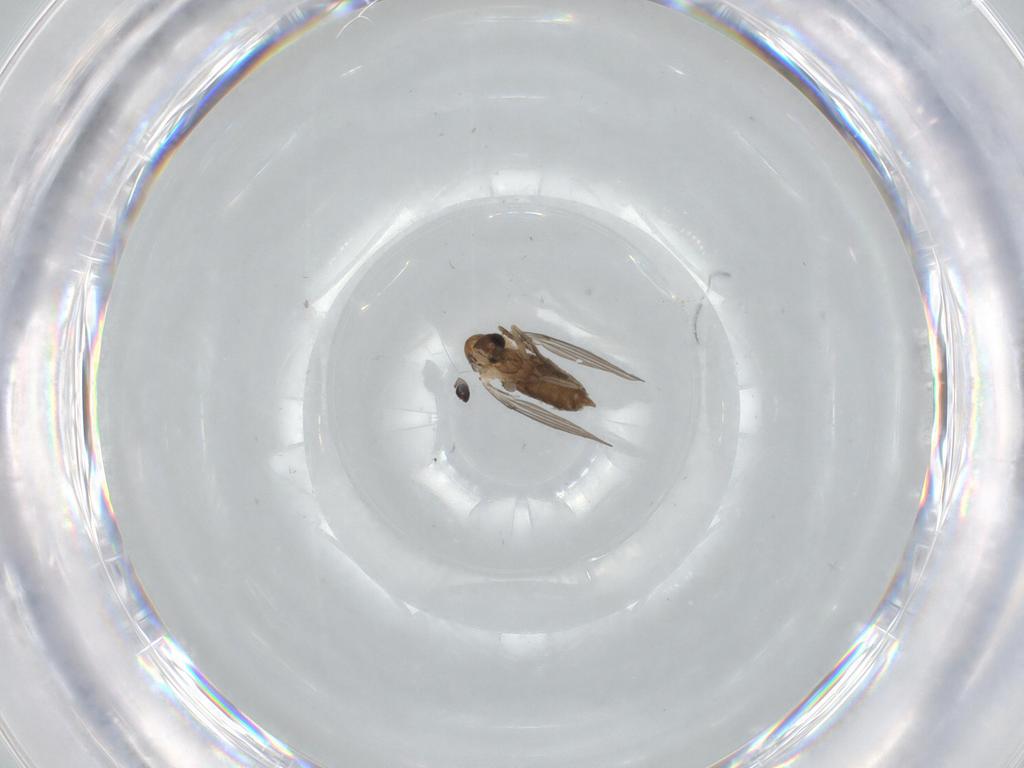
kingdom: Animalia
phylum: Arthropoda
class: Insecta
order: Diptera
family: Psychodidae
